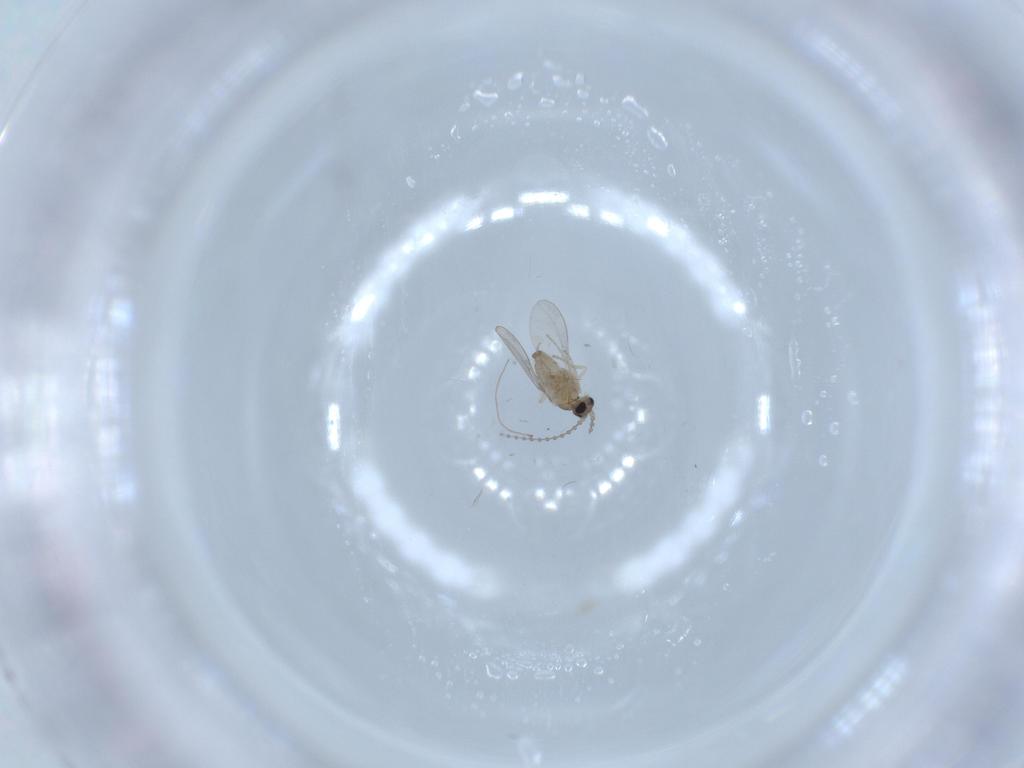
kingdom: Animalia
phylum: Arthropoda
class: Insecta
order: Diptera
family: Cecidomyiidae
